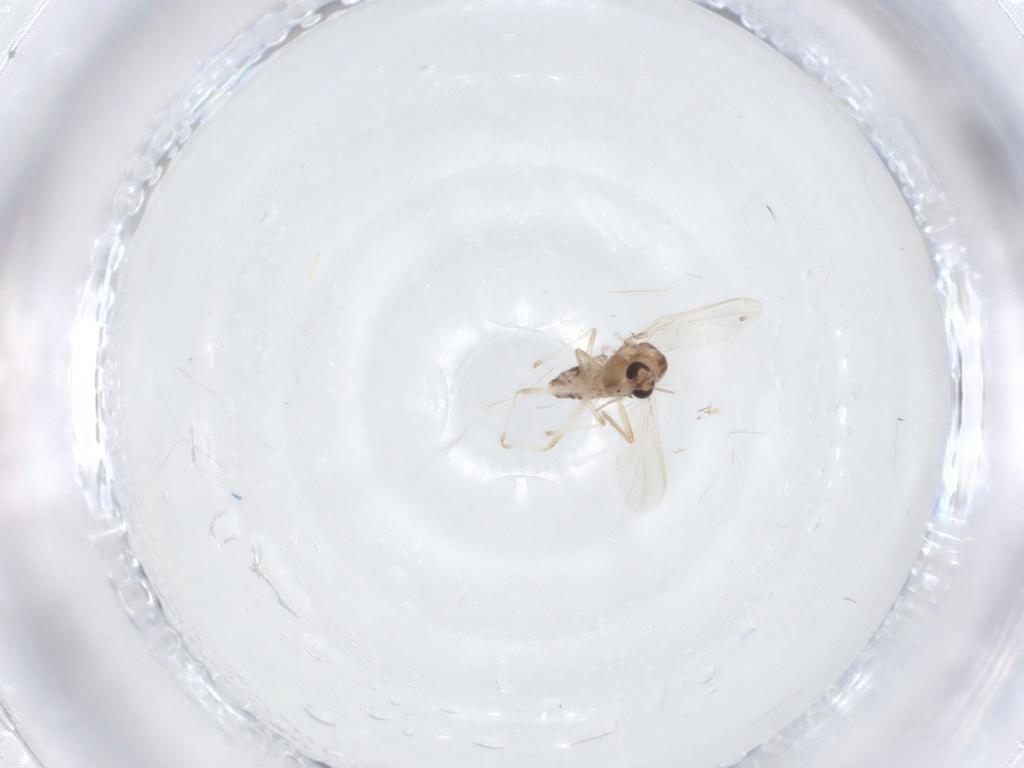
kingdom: Animalia
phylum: Arthropoda
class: Insecta
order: Diptera
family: Chironomidae
